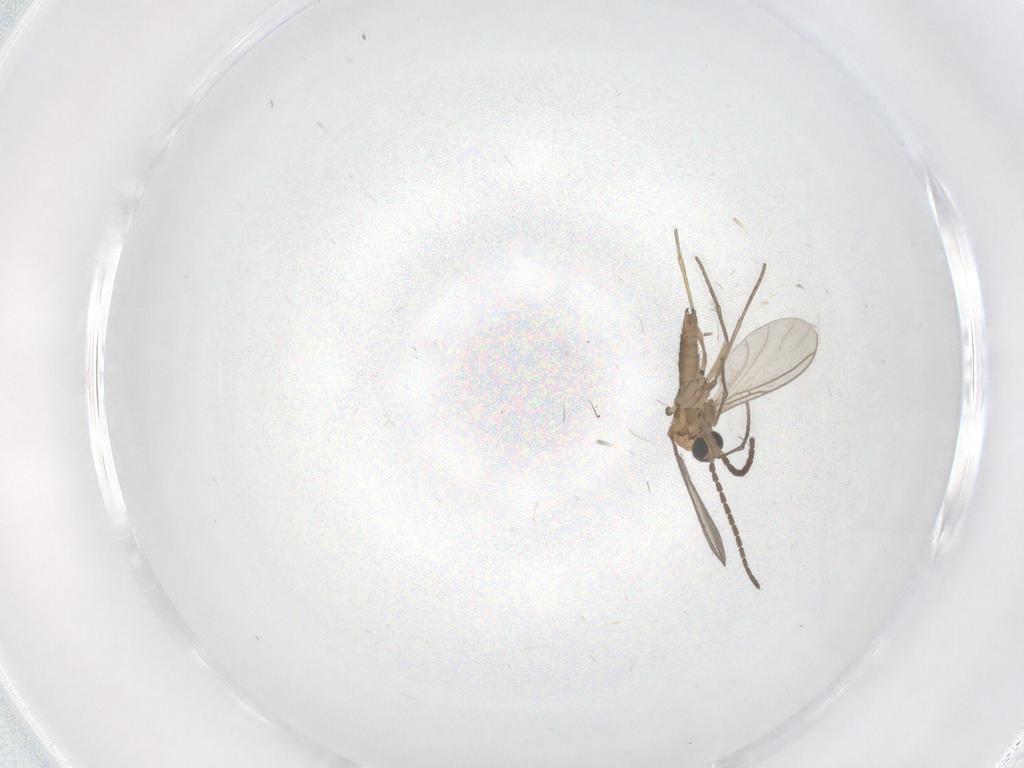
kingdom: Animalia
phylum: Arthropoda
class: Insecta
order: Diptera
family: Sciaridae
